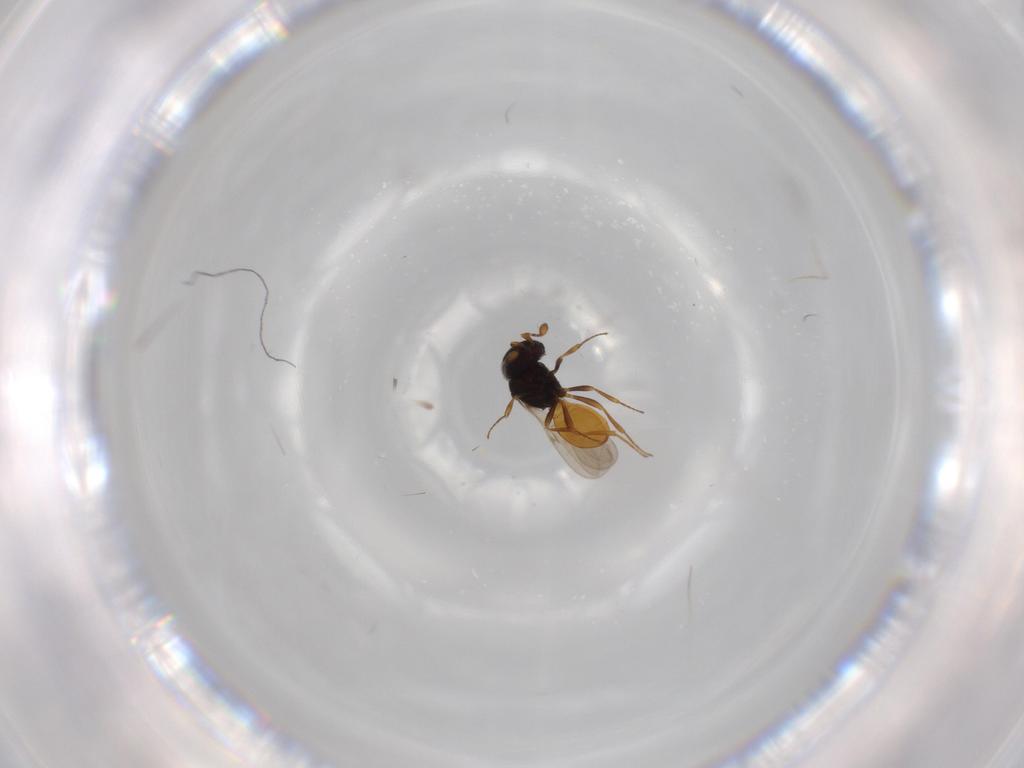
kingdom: Animalia
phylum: Arthropoda
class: Insecta
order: Hymenoptera
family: Scelionidae
